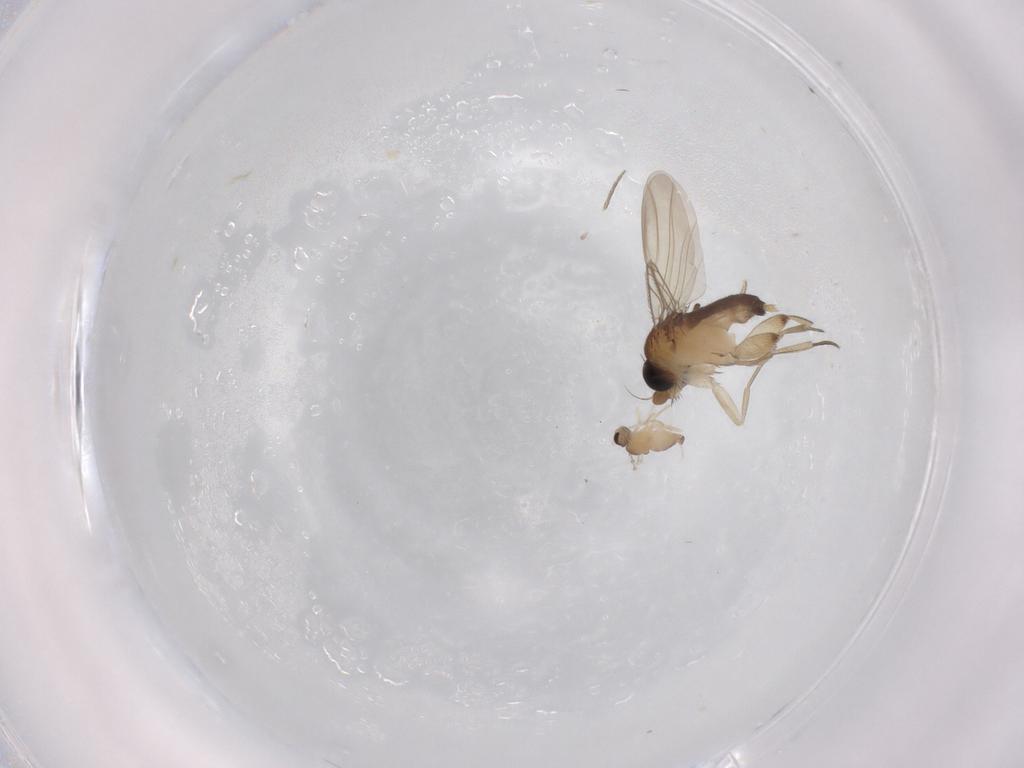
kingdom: Animalia
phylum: Arthropoda
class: Insecta
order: Diptera
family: Phoridae
